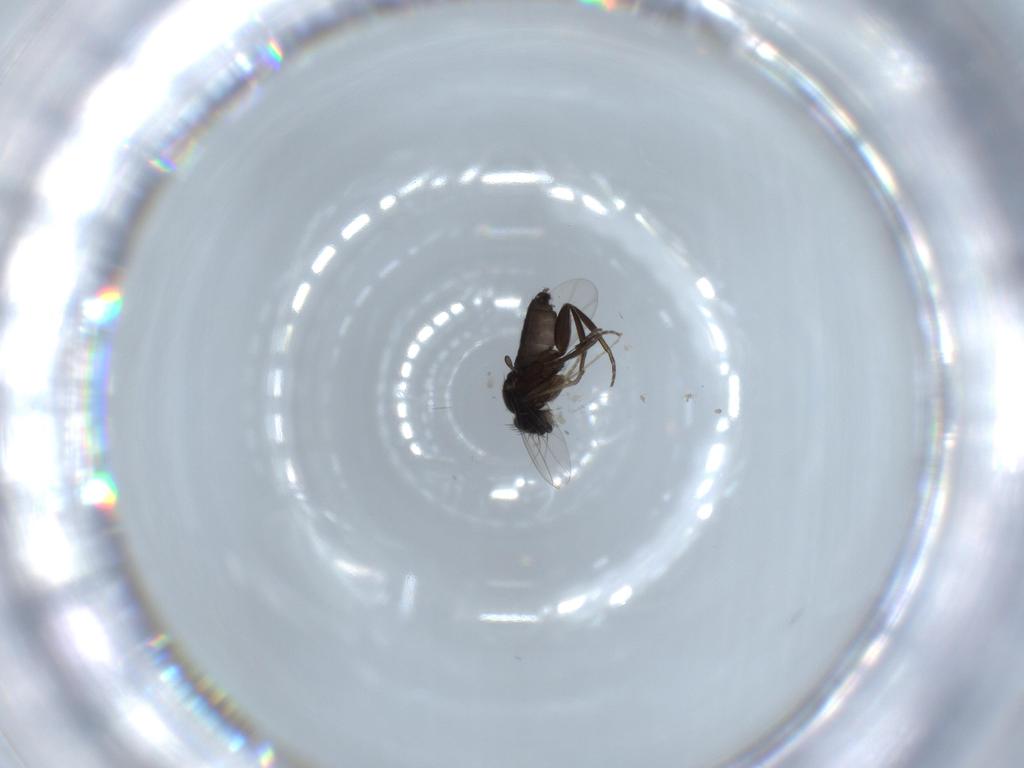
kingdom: Animalia
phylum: Arthropoda
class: Insecta
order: Diptera
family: Phoridae
